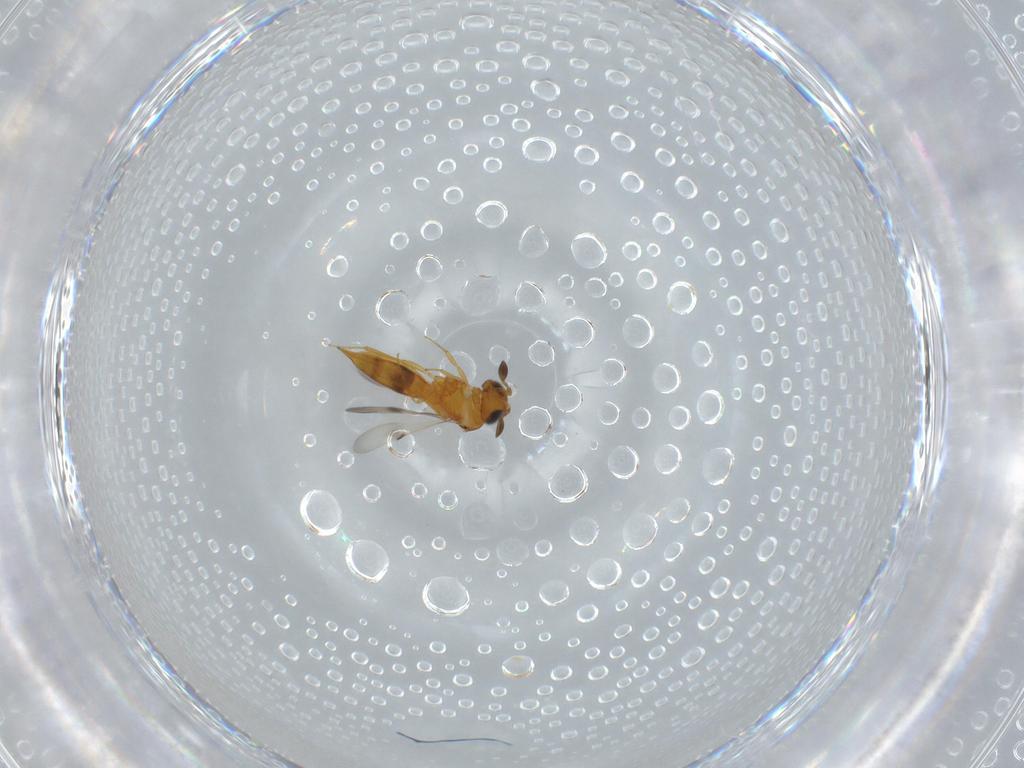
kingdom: Animalia
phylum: Arthropoda
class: Insecta
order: Hymenoptera
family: Scelionidae
